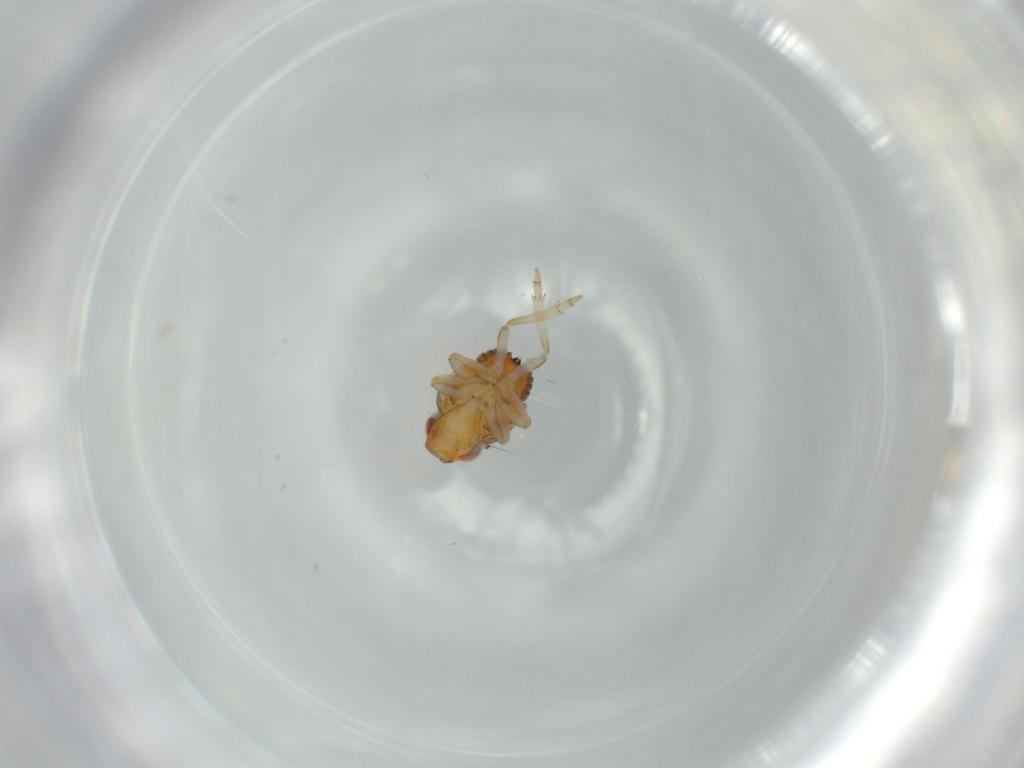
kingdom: Animalia
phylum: Arthropoda
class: Insecta
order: Hemiptera
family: Issidae
